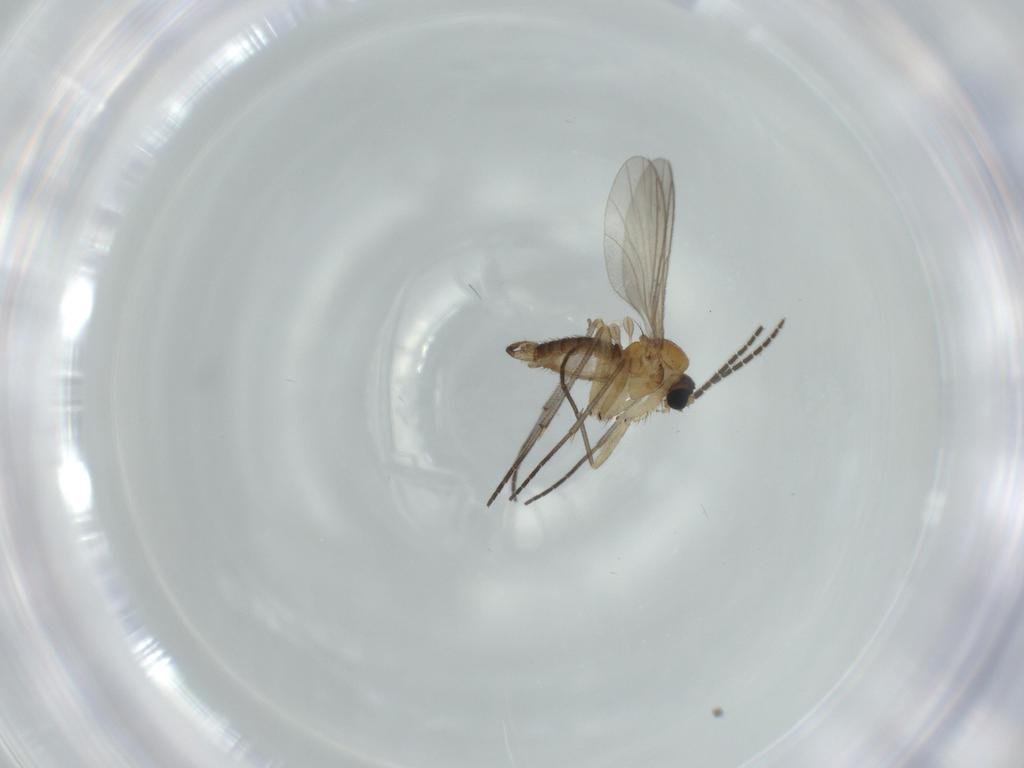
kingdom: Animalia
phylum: Arthropoda
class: Insecta
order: Diptera
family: Sciaridae
